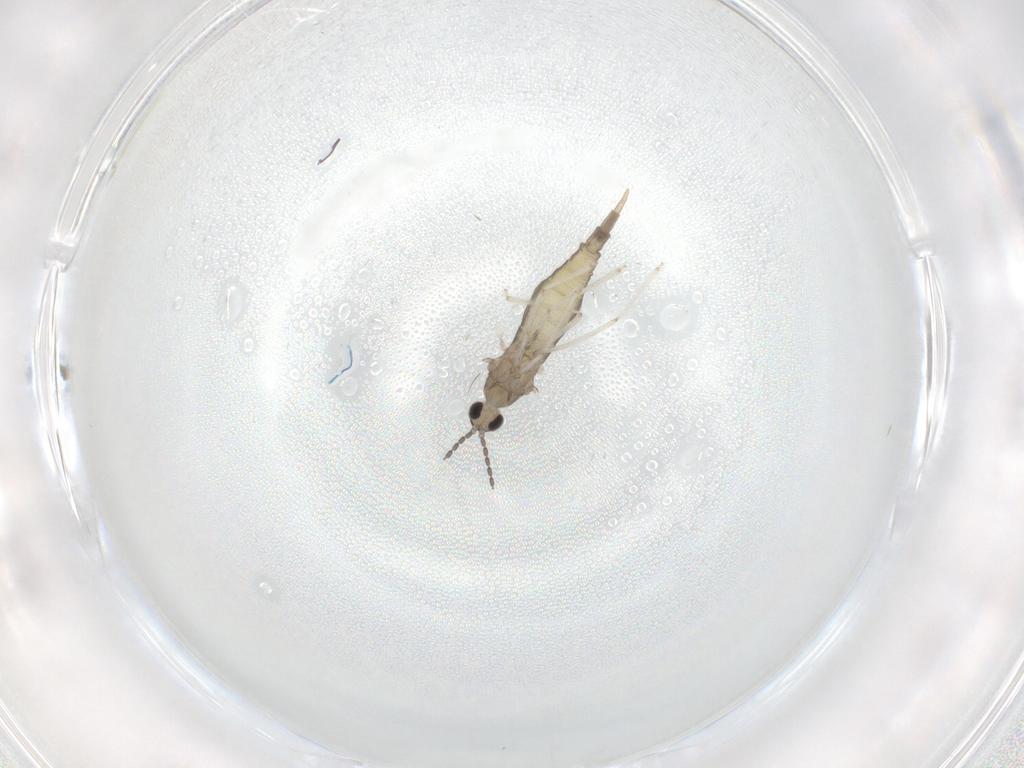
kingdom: Animalia
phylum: Arthropoda
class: Insecta
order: Diptera
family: Cecidomyiidae
